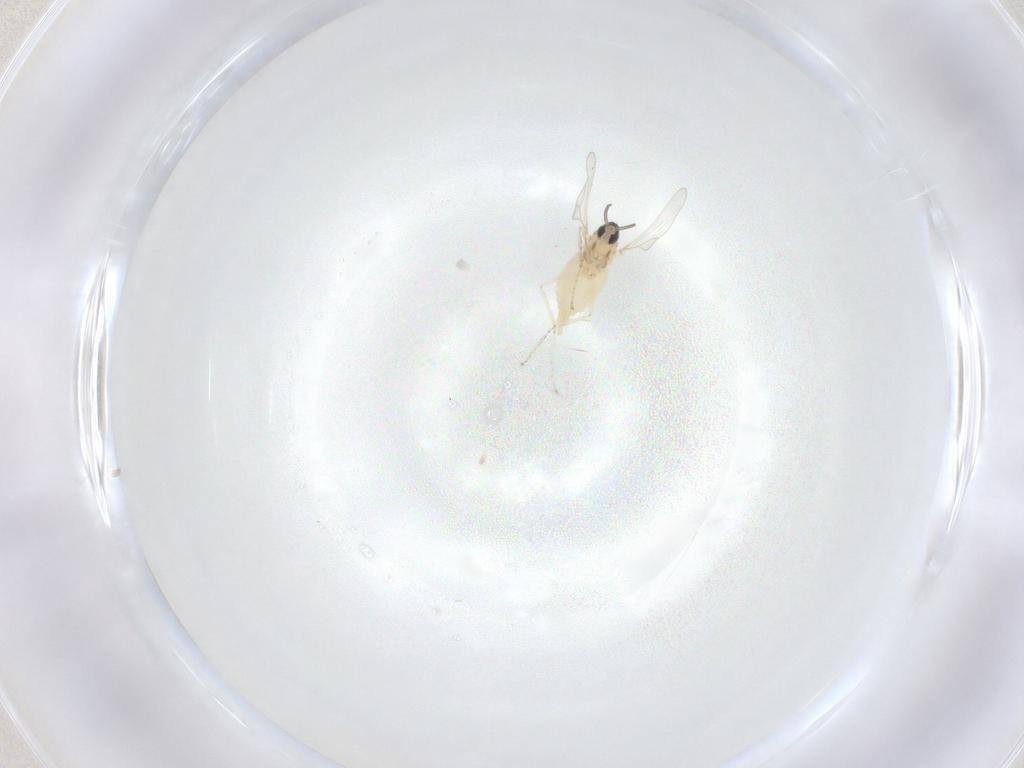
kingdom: Animalia
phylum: Arthropoda
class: Insecta
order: Diptera
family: Cecidomyiidae
